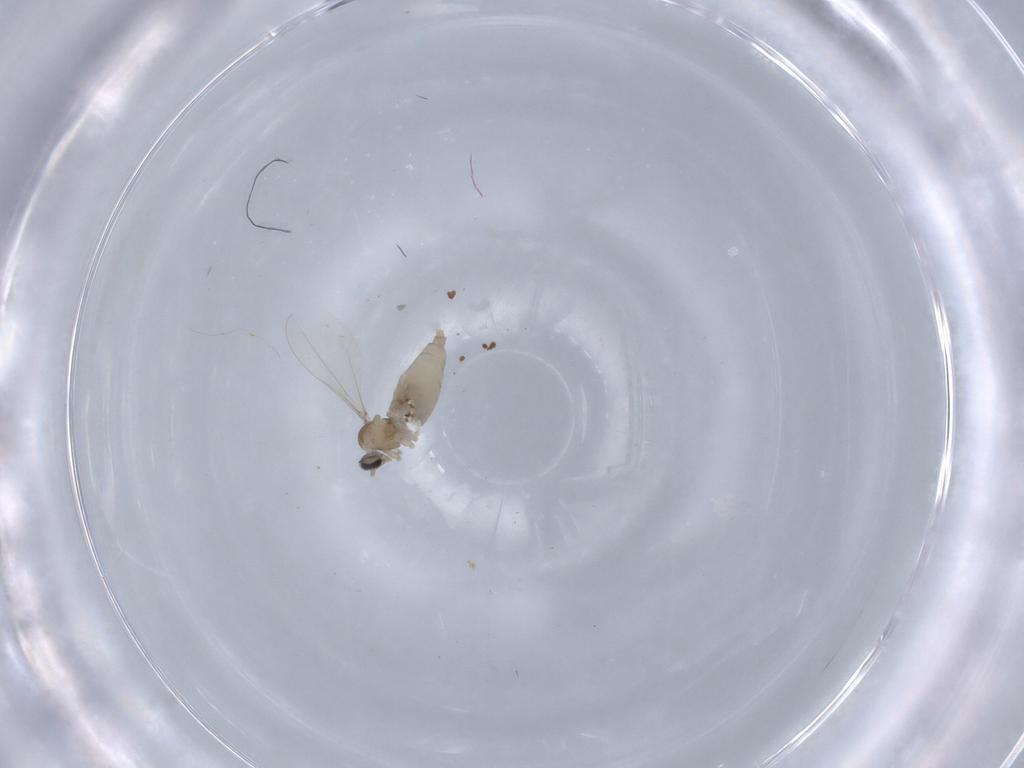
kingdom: Animalia
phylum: Arthropoda
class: Insecta
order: Diptera
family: Cecidomyiidae
